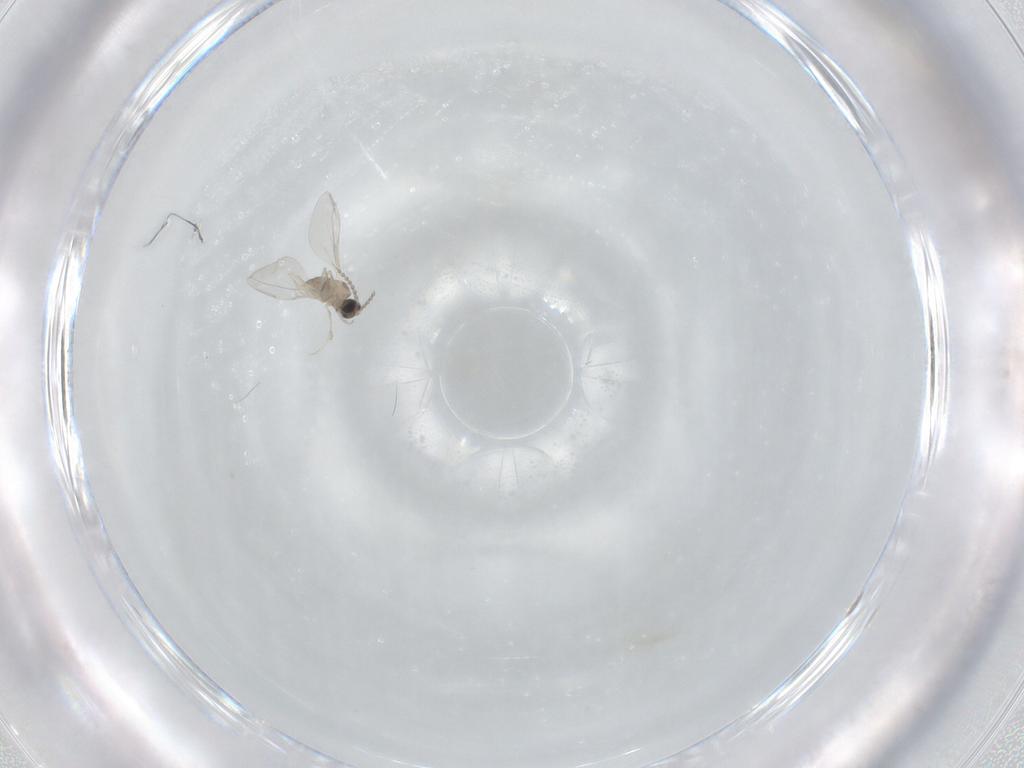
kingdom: Animalia
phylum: Arthropoda
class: Insecta
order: Diptera
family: Cecidomyiidae
